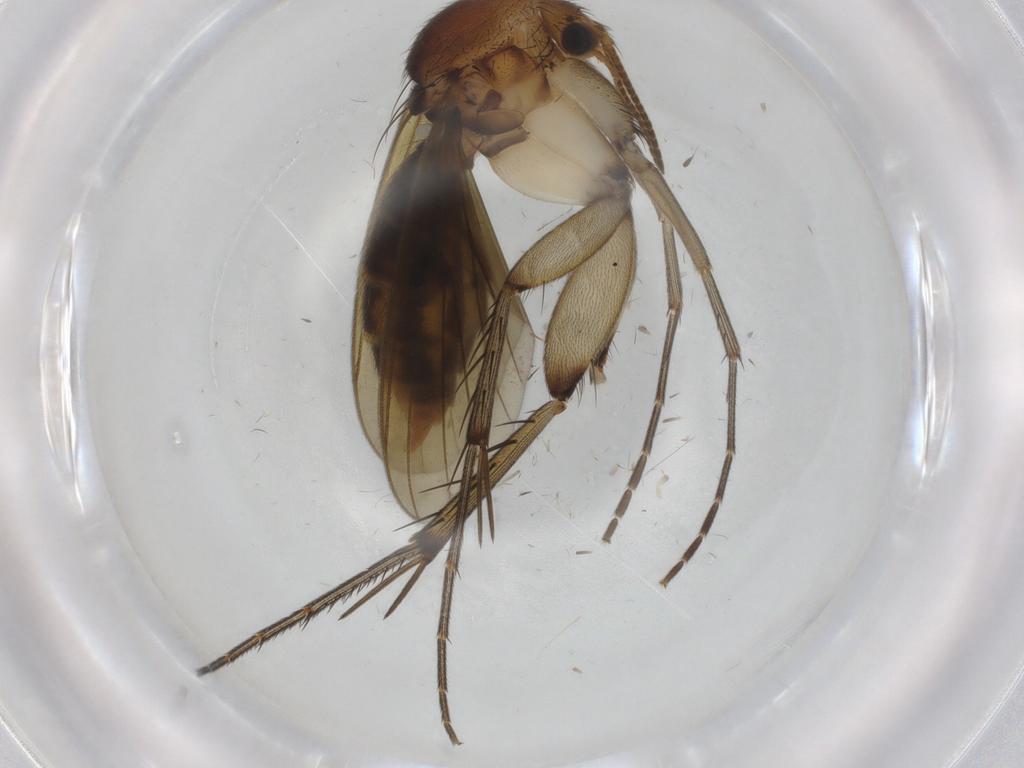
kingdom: Animalia
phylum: Arthropoda
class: Insecta
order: Diptera
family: Mycetophilidae
